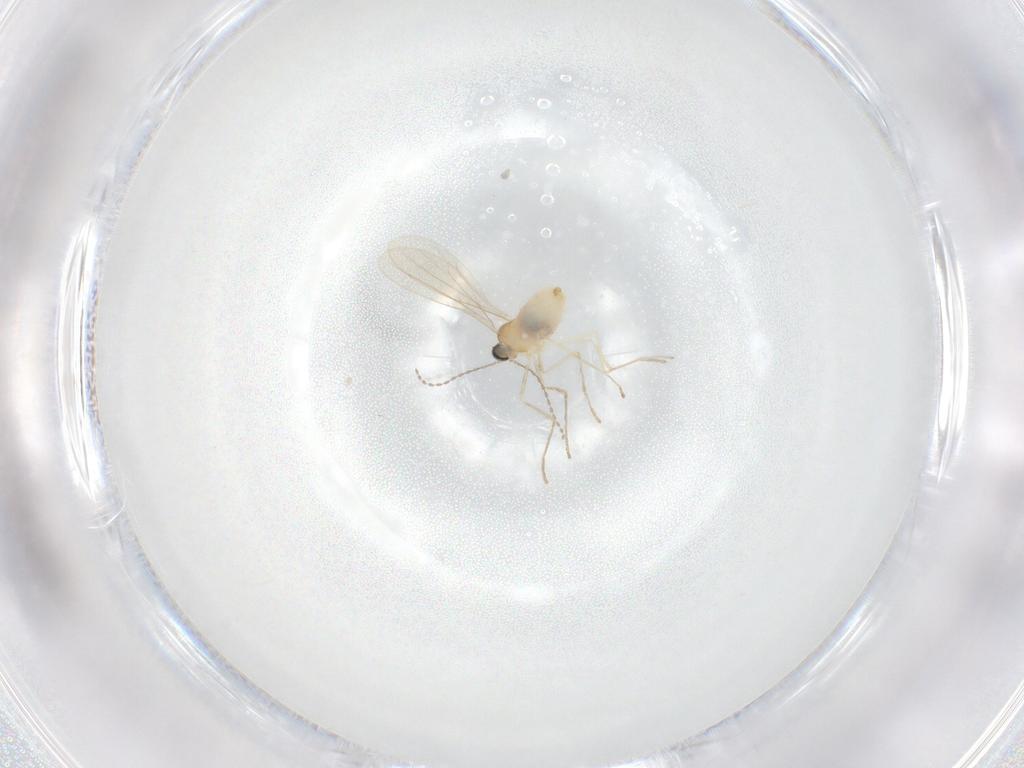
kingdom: Animalia
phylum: Arthropoda
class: Insecta
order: Diptera
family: Cecidomyiidae
